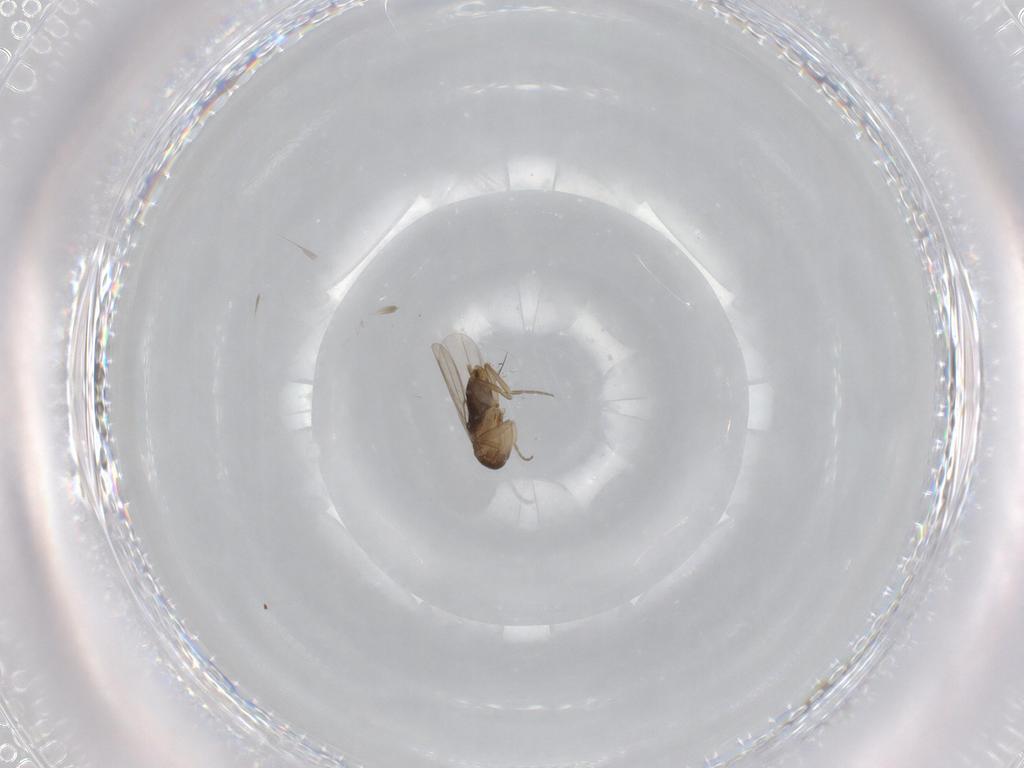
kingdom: Animalia
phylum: Arthropoda
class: Insecta
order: Diptera
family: Phoridae
